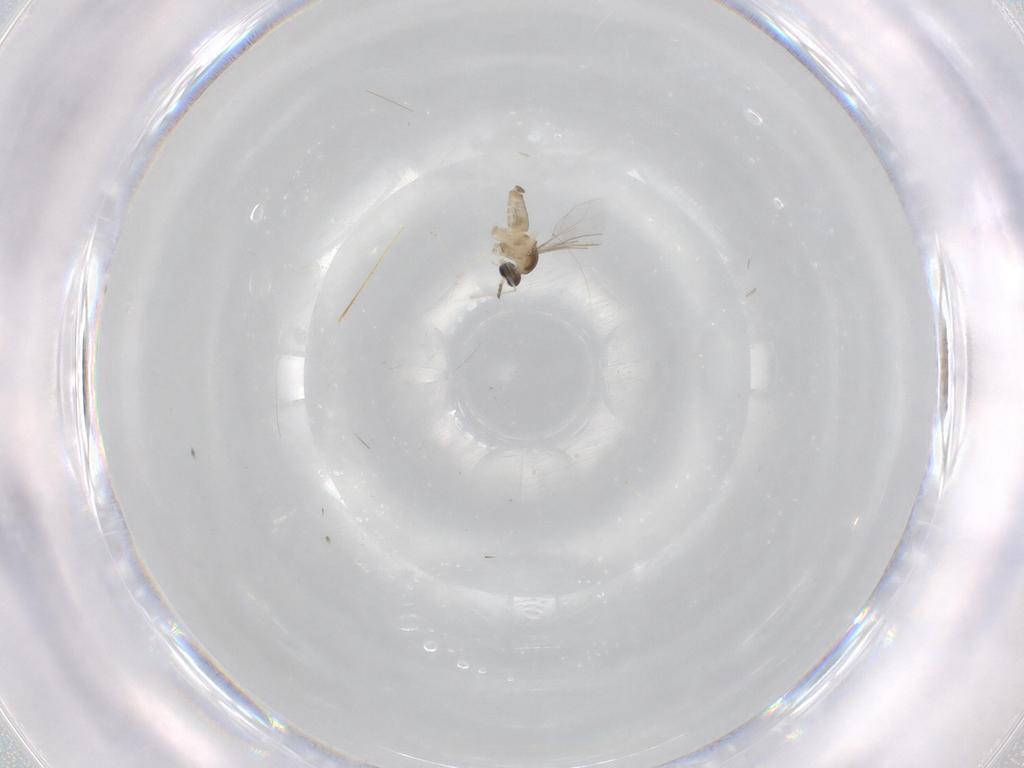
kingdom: Animalia
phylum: Arthropoda
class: Insecta
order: Diptera
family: Cecidomyiidae
